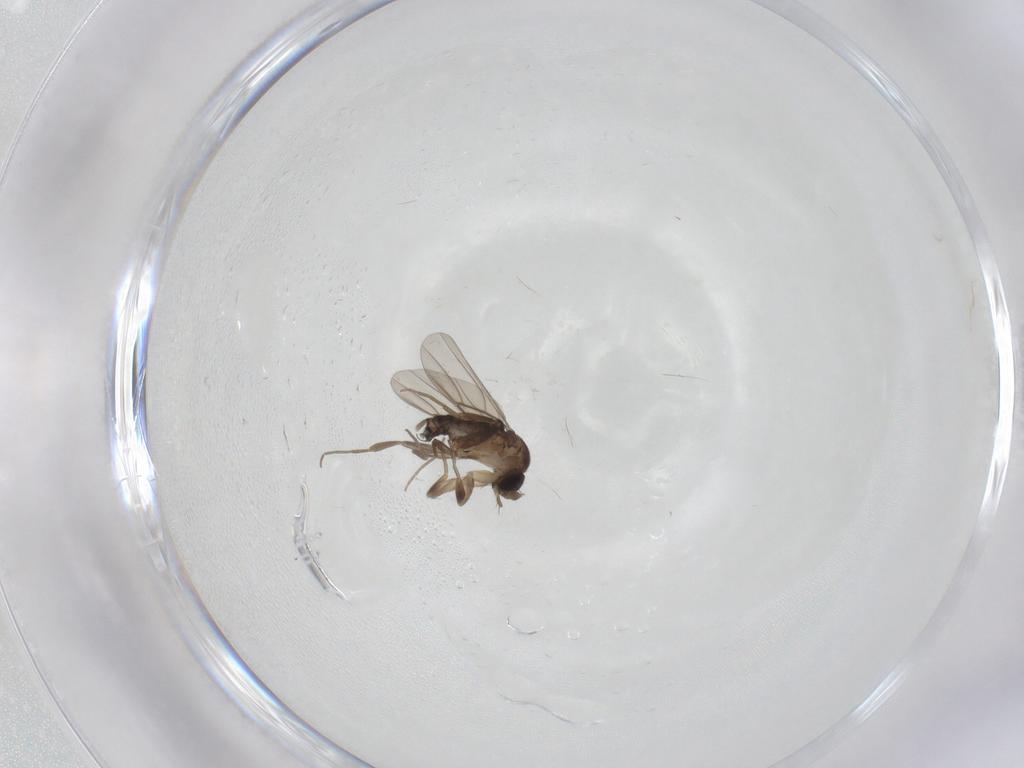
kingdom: Animalia
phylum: Arthropoda
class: Insecta
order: Diptera
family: Phoridae
